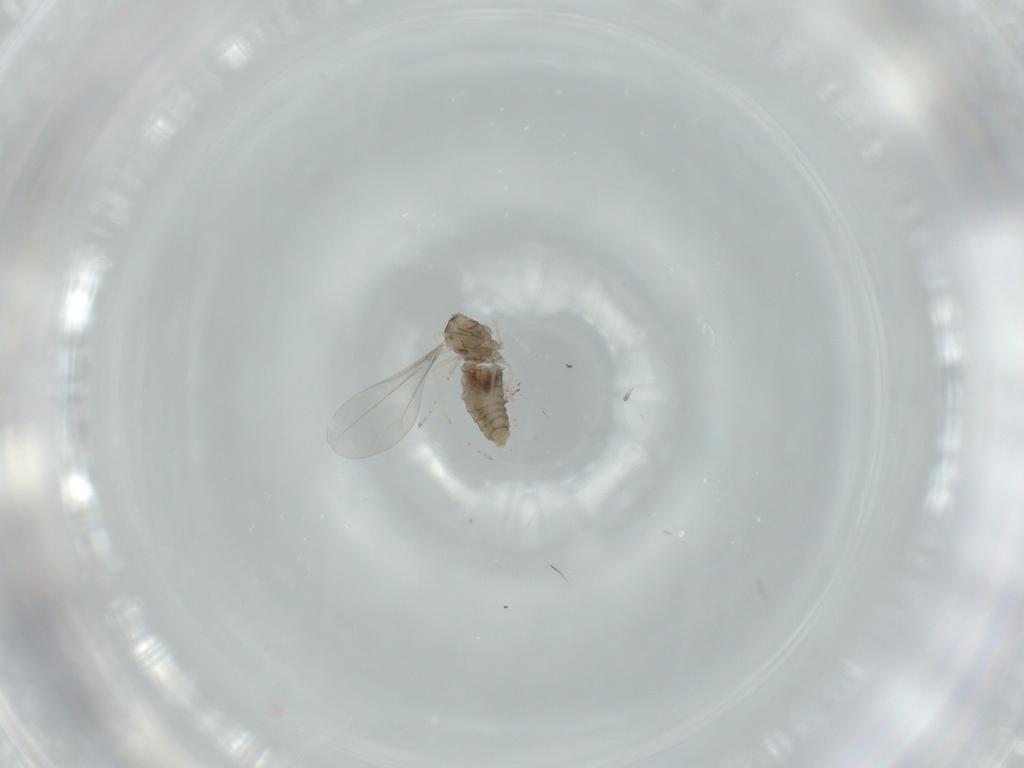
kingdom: Animalia
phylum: Arthropoda
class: Insecta
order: Diptera
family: Cecidomyiidae
